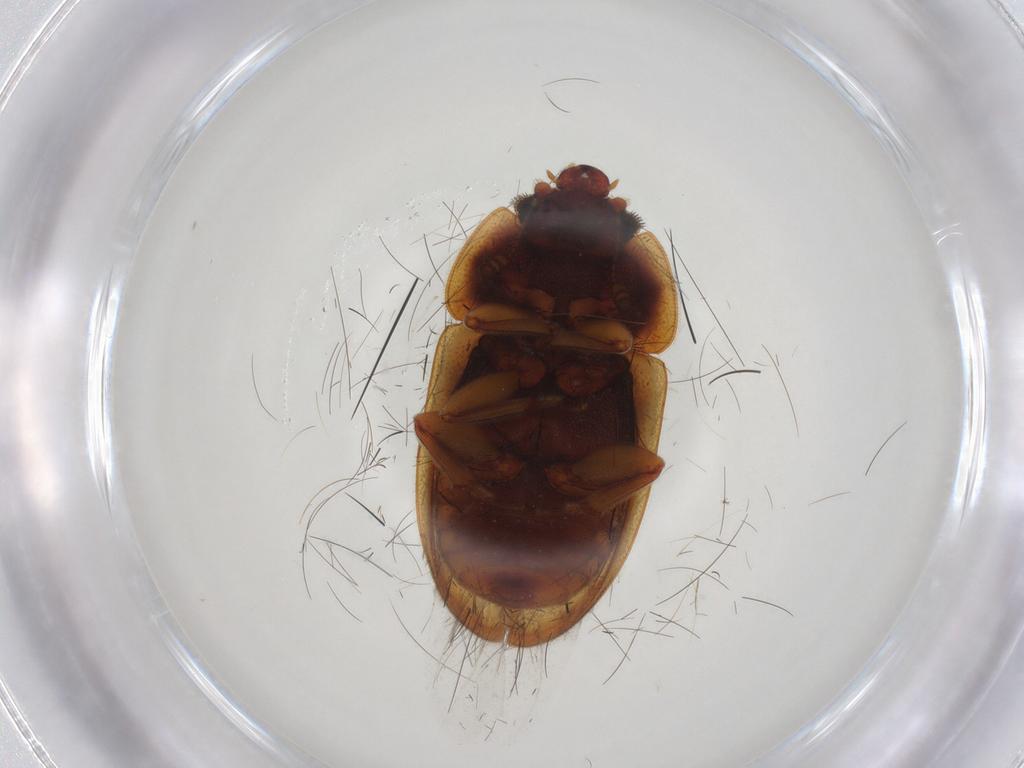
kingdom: Animalia
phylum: Arthropoda
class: Insecta
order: Coleoptera
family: Nitidulidae
